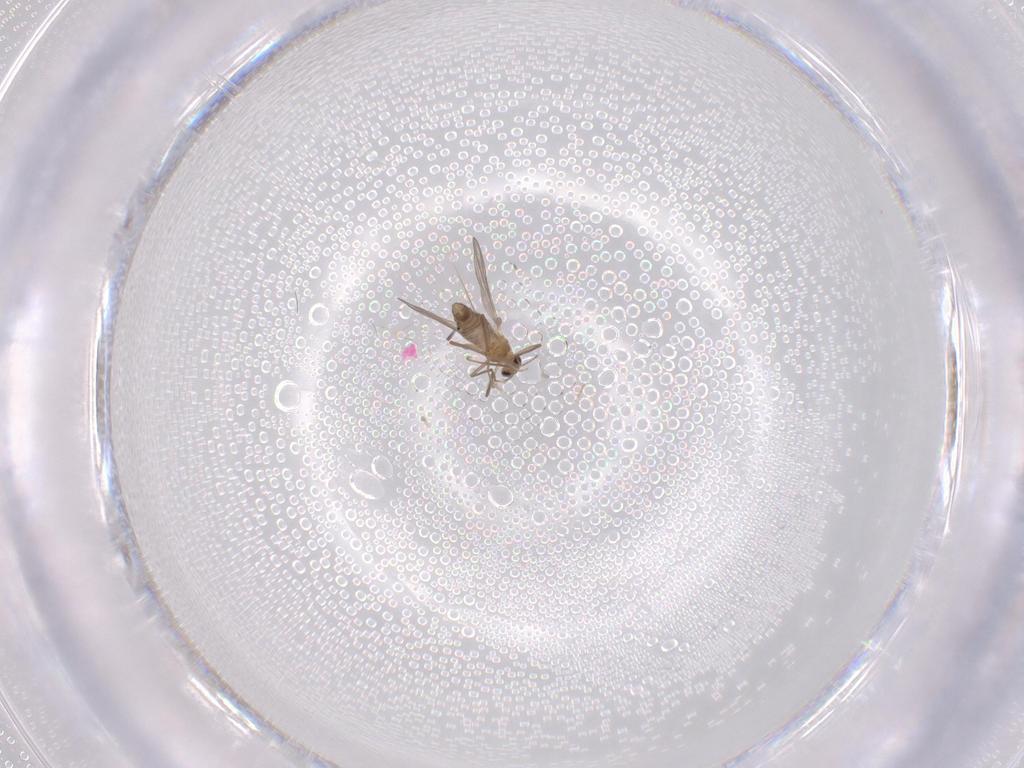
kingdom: Animalia
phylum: Arthropoda
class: Insecta
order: Diptera
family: Chironomidae
